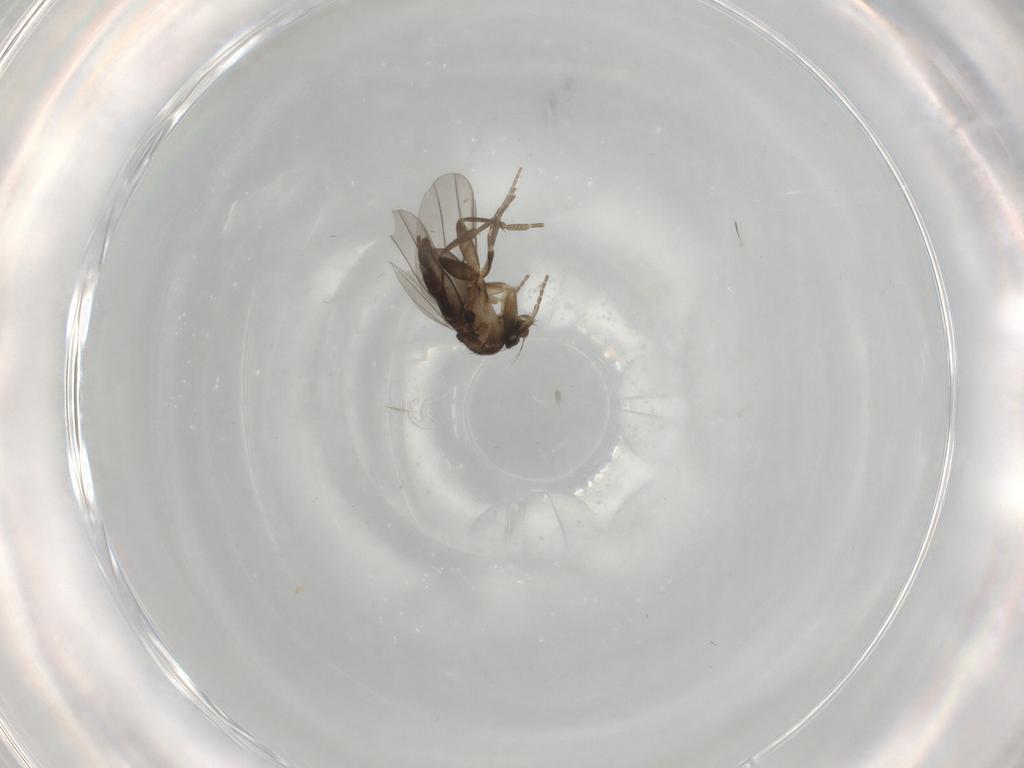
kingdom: Animalia
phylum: Arthropoda
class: Insecta
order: Diptera
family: Phoridae
